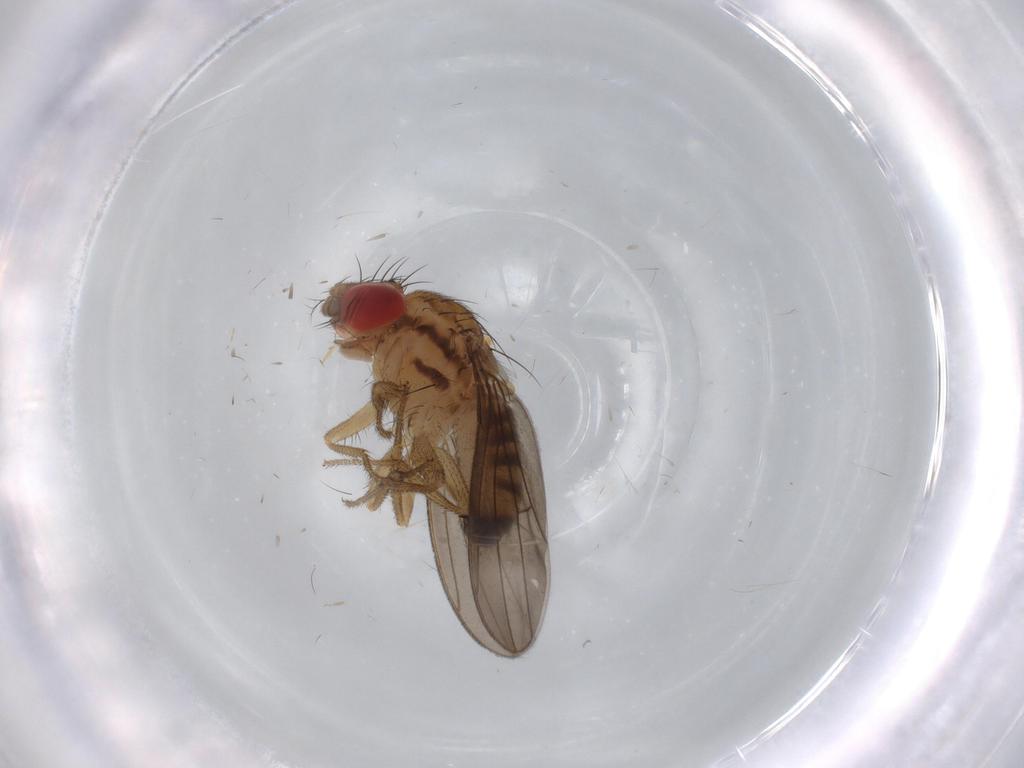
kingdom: Animalia
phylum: Arthropoda
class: Insecta
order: Diptera
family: Drosophilidae
